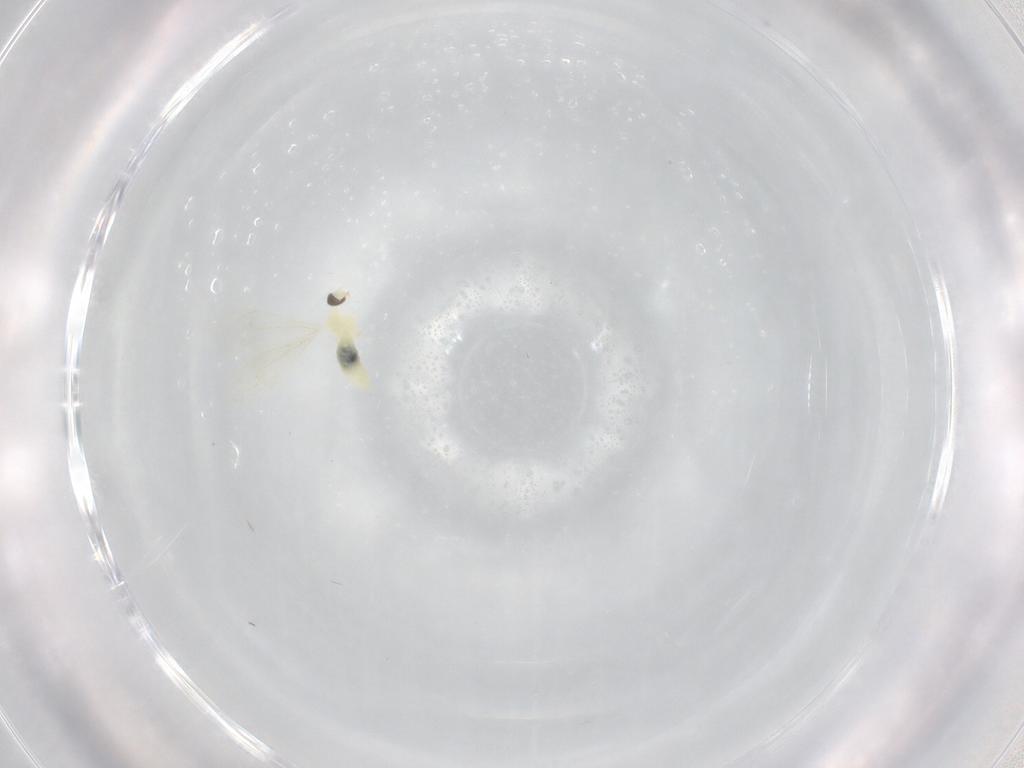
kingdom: Animalia
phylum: Arthropoda
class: Insecta
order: Diptera
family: Cecidomyiidae
